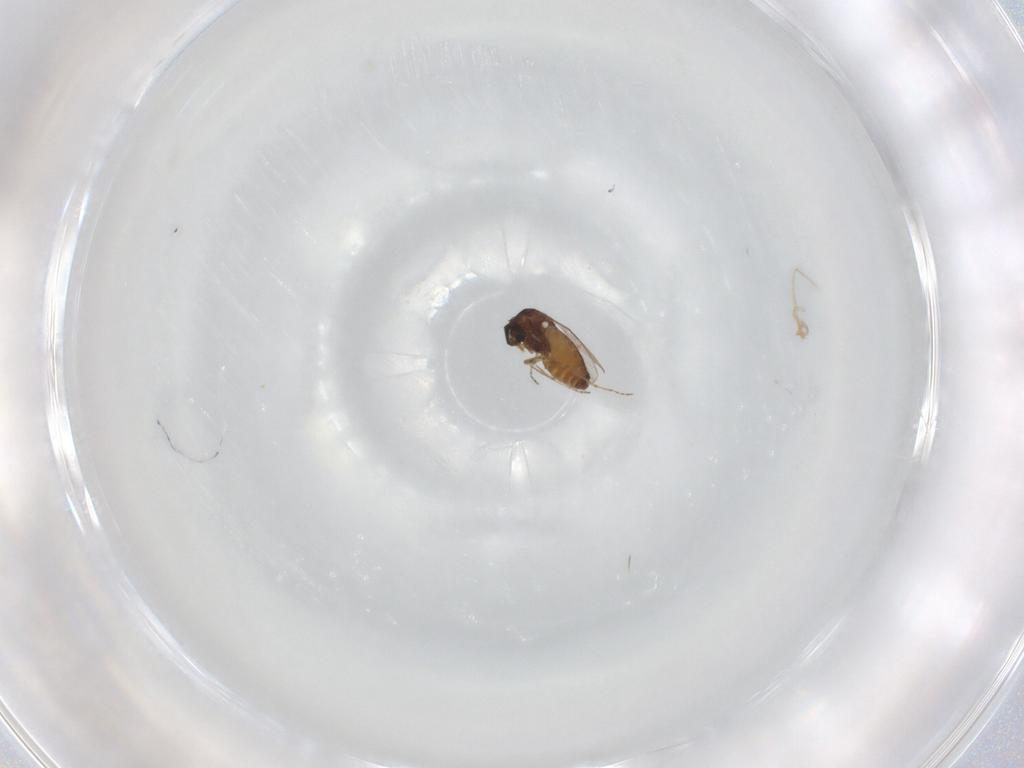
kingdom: Animalia
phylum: Arthropoda
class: Insecta
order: Diptera
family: Ceratopogonidae
